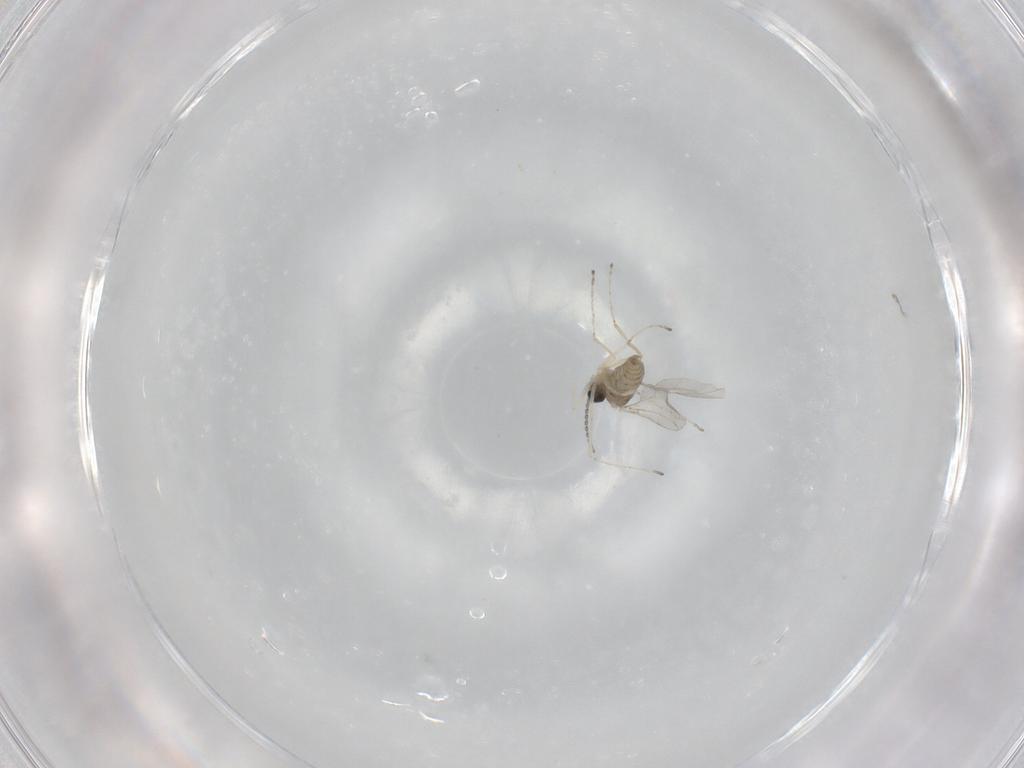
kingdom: Animalia
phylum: Arthropoda
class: Insecta
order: Diptera
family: Cecidomyiidae
